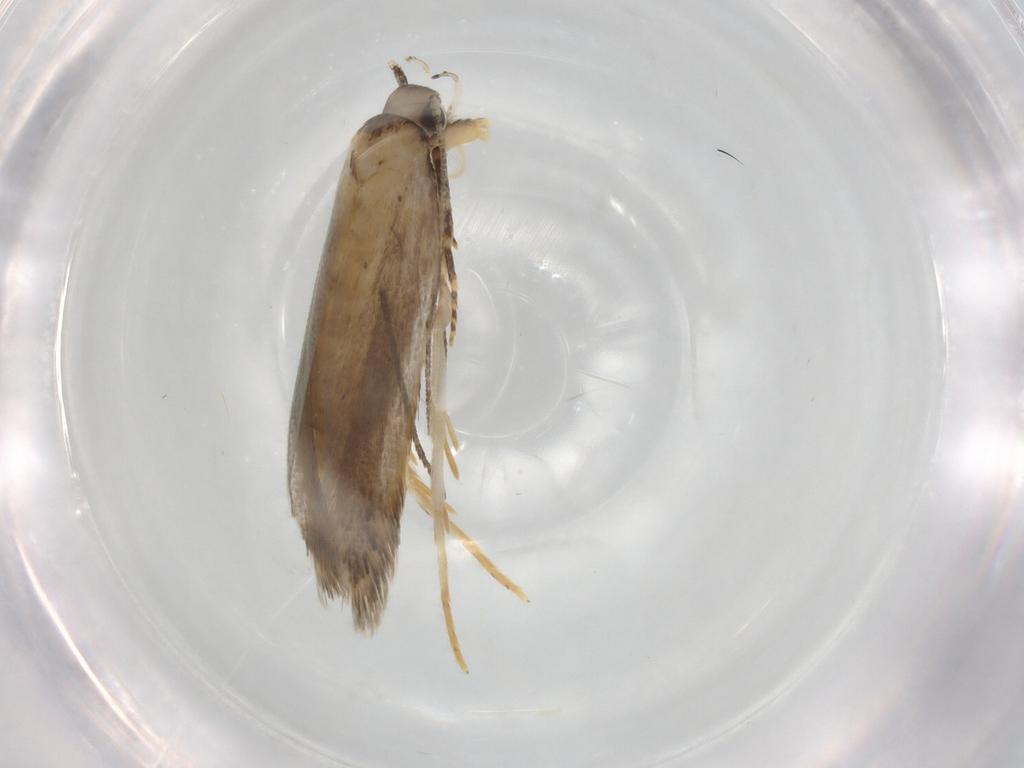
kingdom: Animalia
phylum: Arthropoda
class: Insecta
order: Lepidoptera
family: Autostichidae
